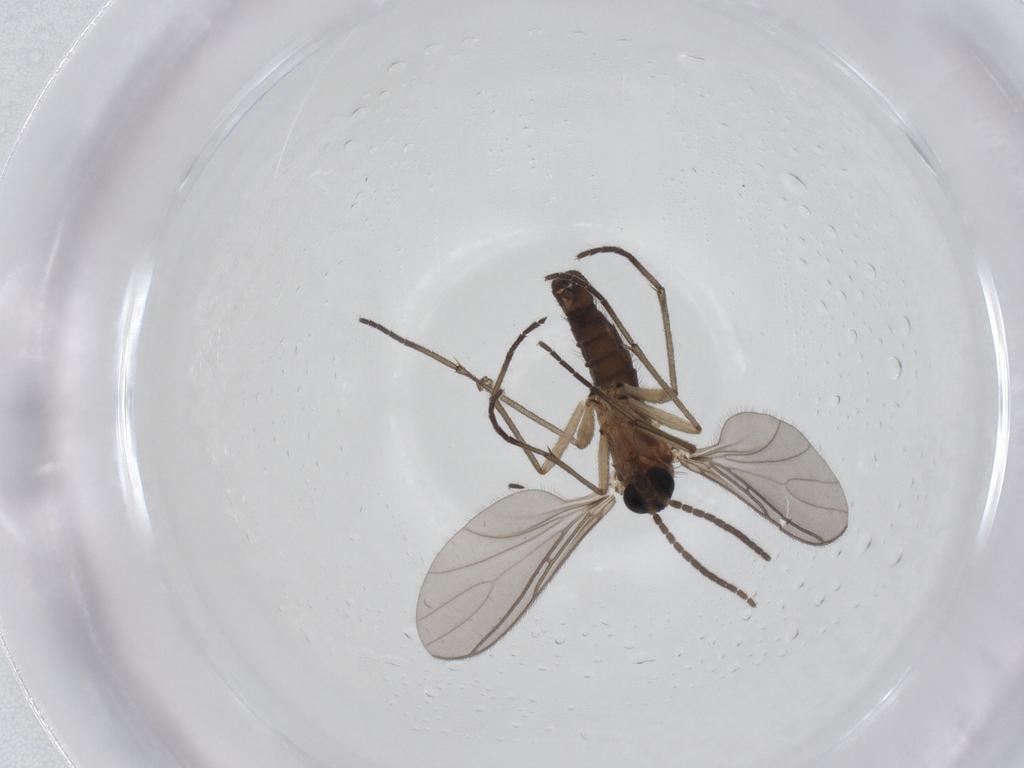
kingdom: Animalia
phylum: Arthropoda
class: Insecta
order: Diptera
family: Sciaridae
